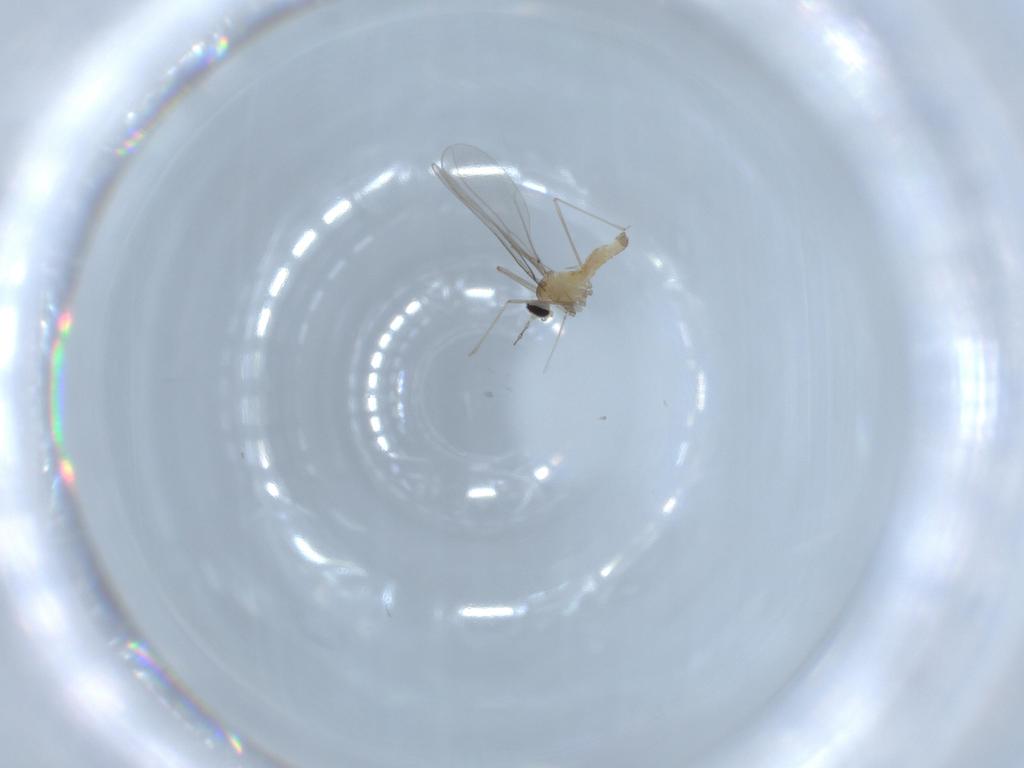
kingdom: Animalia
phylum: Arthropoda
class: Insecta
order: Diptera
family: Cecidomyiidae
